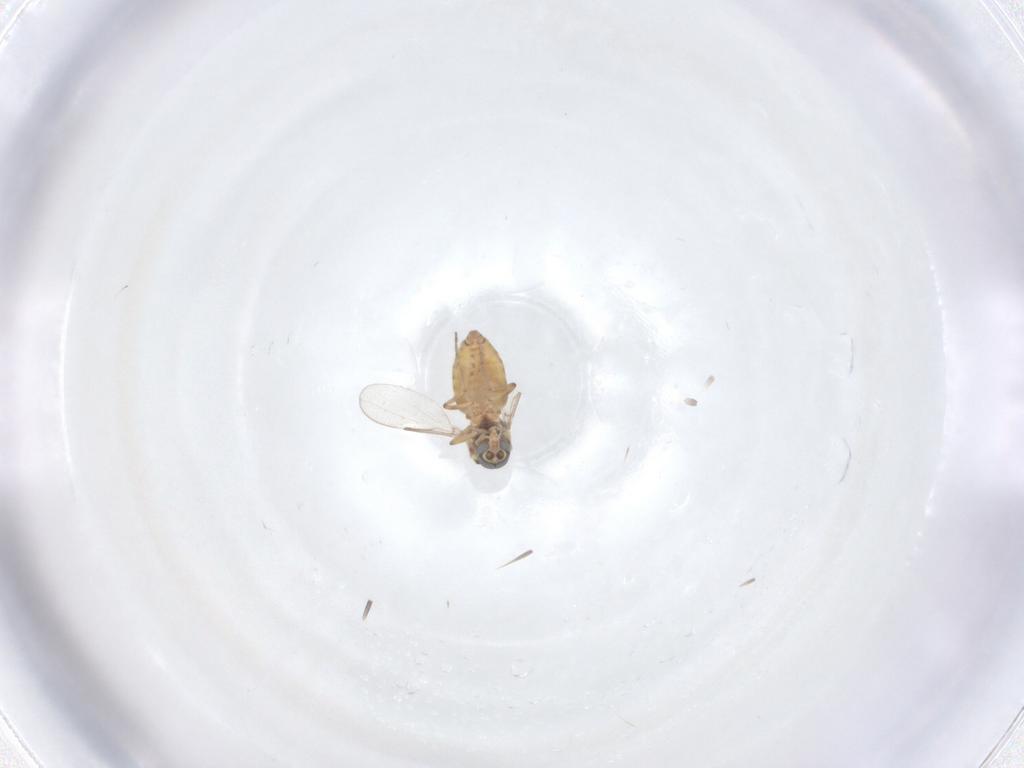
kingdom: Animalia
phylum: Arthropoda
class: Insecta
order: Diptera
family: Ceratopogonidae
